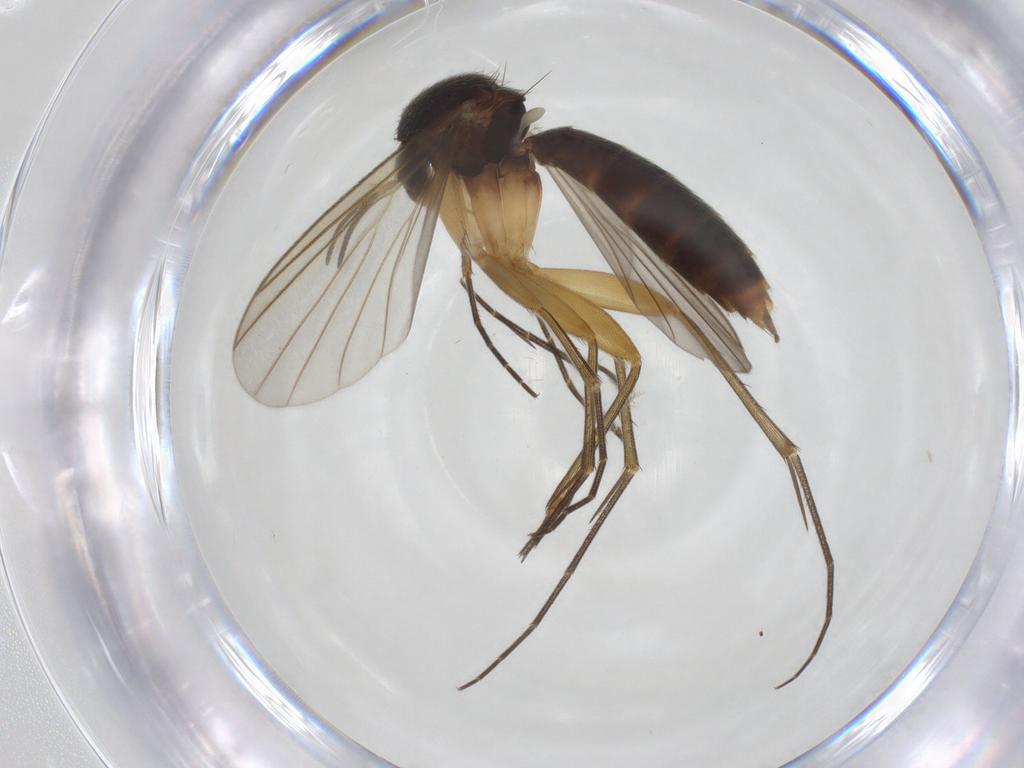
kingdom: Animalia
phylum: Arthropoda
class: Insecta
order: Diptera
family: Mycetophilidae
